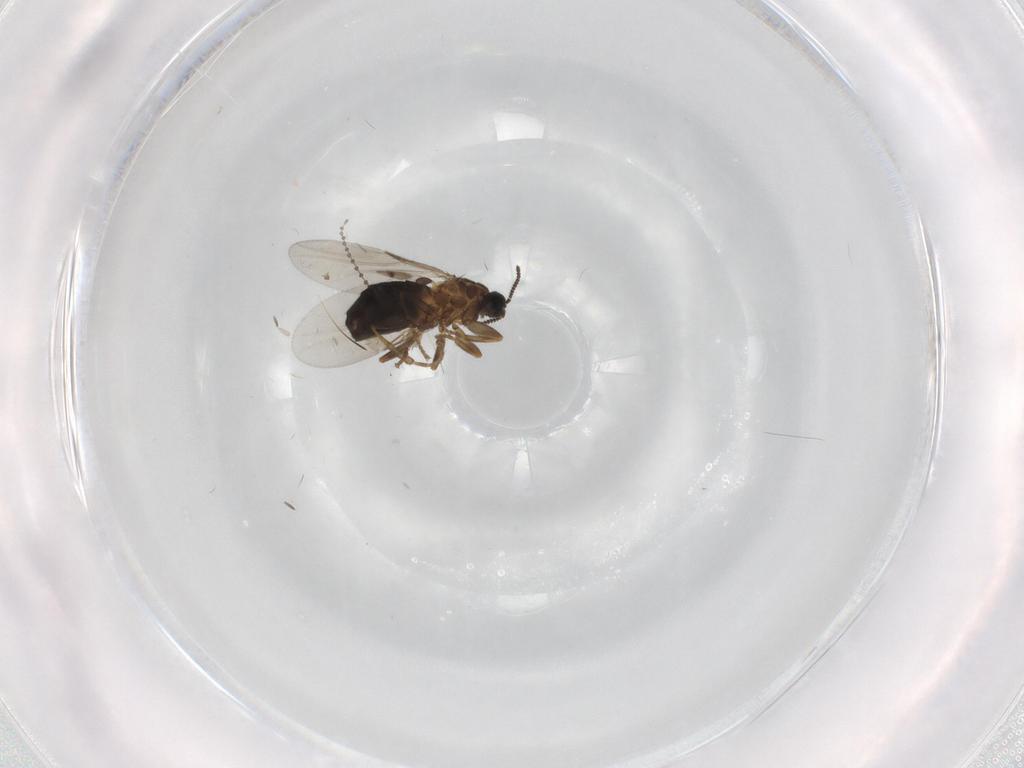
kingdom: Animalia
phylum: Arthropoda
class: Insecta
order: Diptera
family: Scatopsidae
